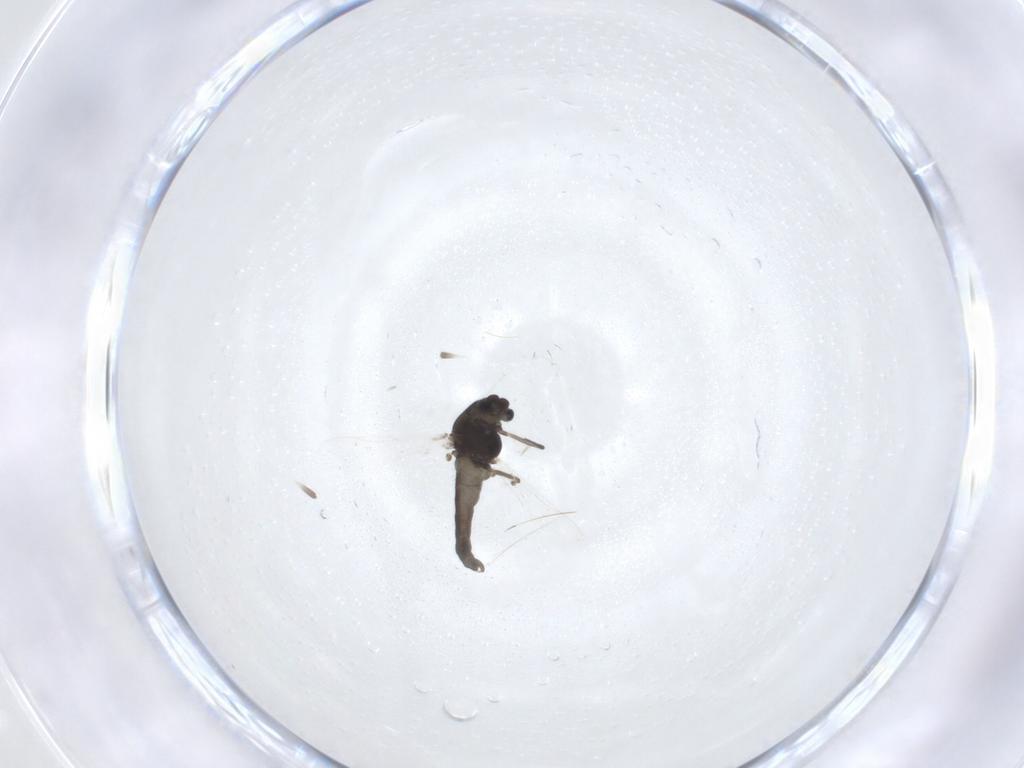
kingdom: Animalia
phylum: Arthropoda
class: Insecta
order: Diptera
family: Chironomidae
